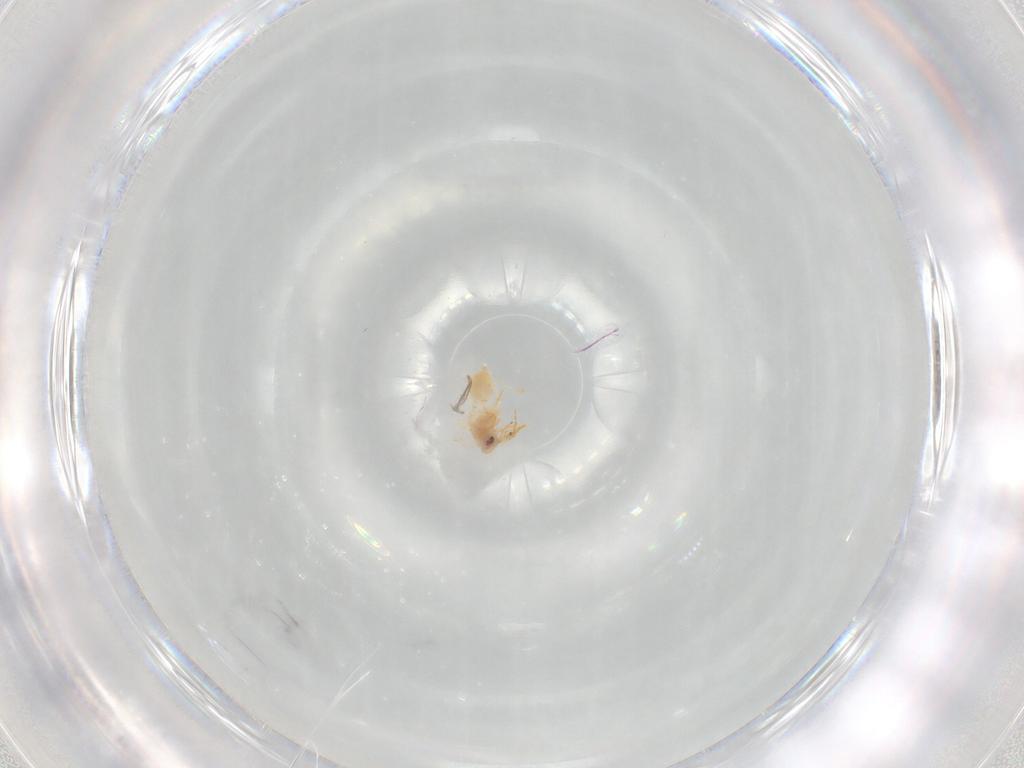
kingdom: Animalia
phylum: Arthropoda
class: Insecta
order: Hemiptera
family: Aleyrodidae
